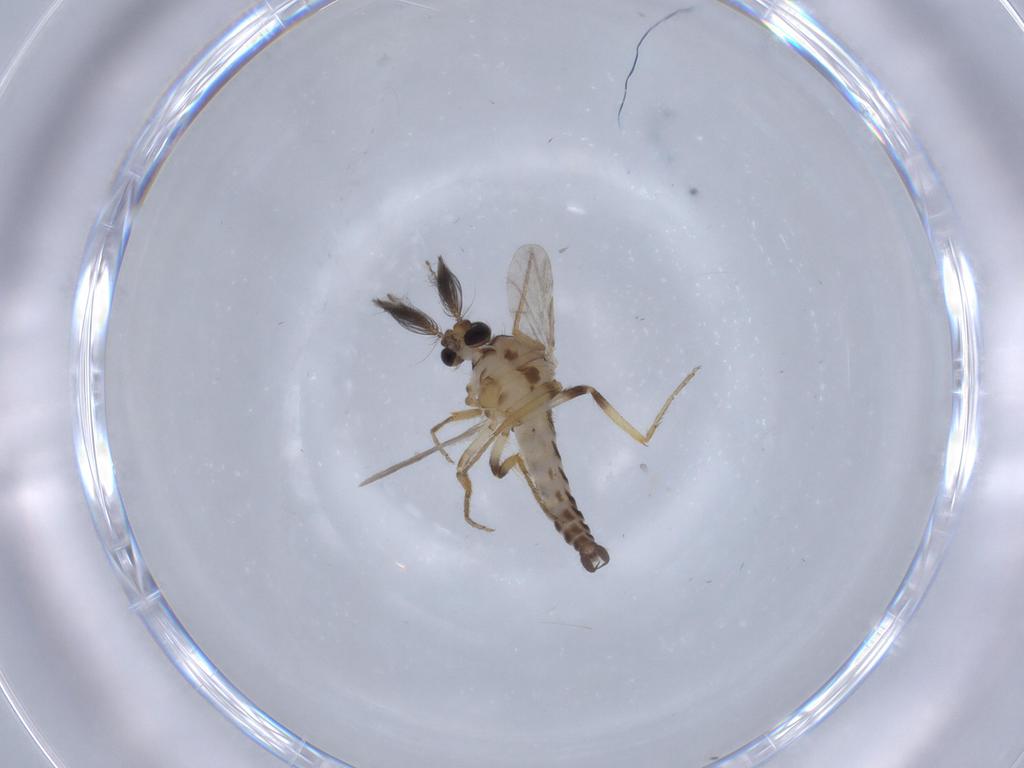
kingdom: Animalia
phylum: Arthropoda
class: Insecta
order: Diptera
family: Ceratopogonidae
